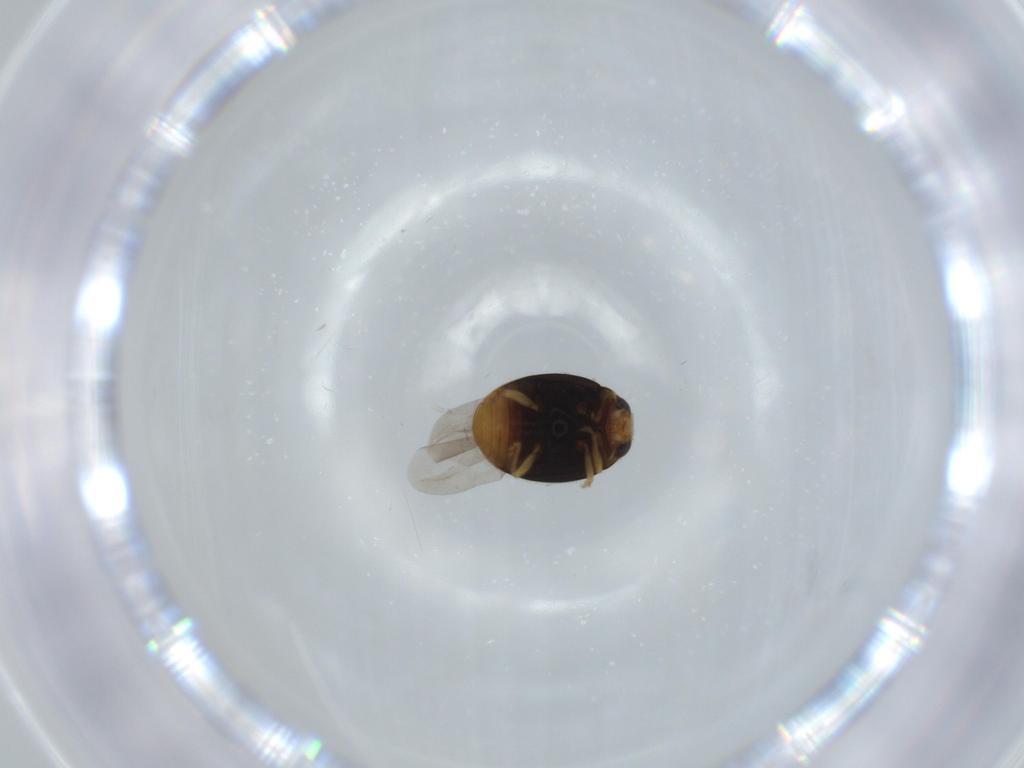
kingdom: Animalia
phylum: Arthropoda
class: Insecta
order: Coleoptera
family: Coccinellidae
